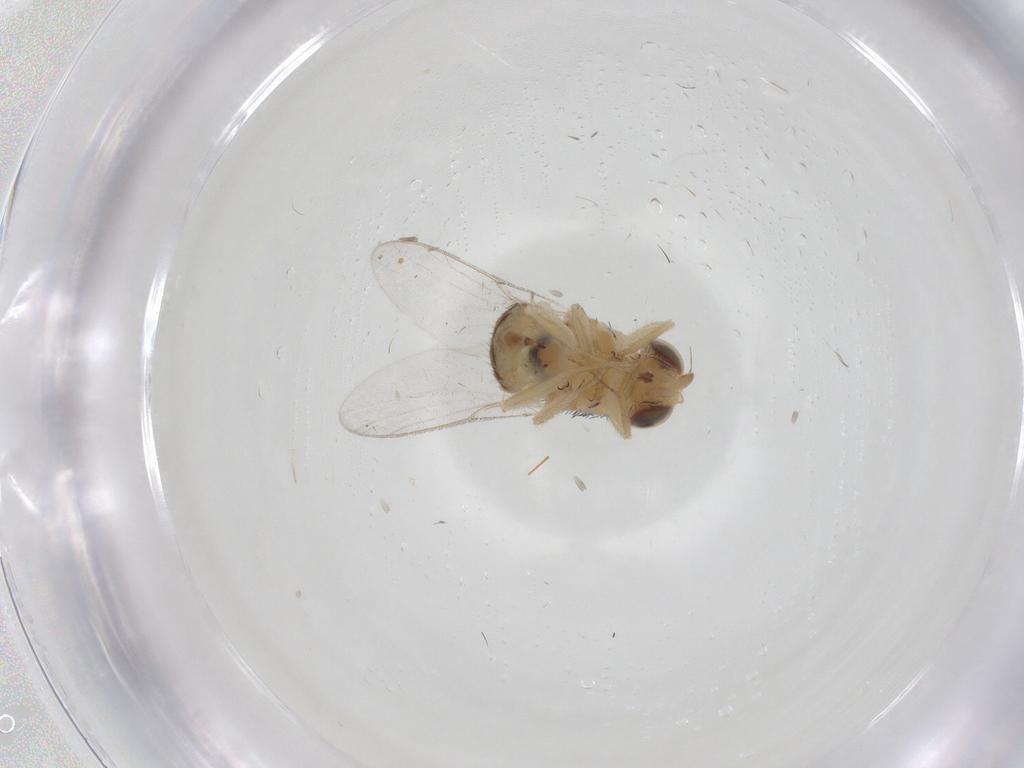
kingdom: Animalia
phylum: Arthropoda
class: Insecta
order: Diptera
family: Chloropidae
